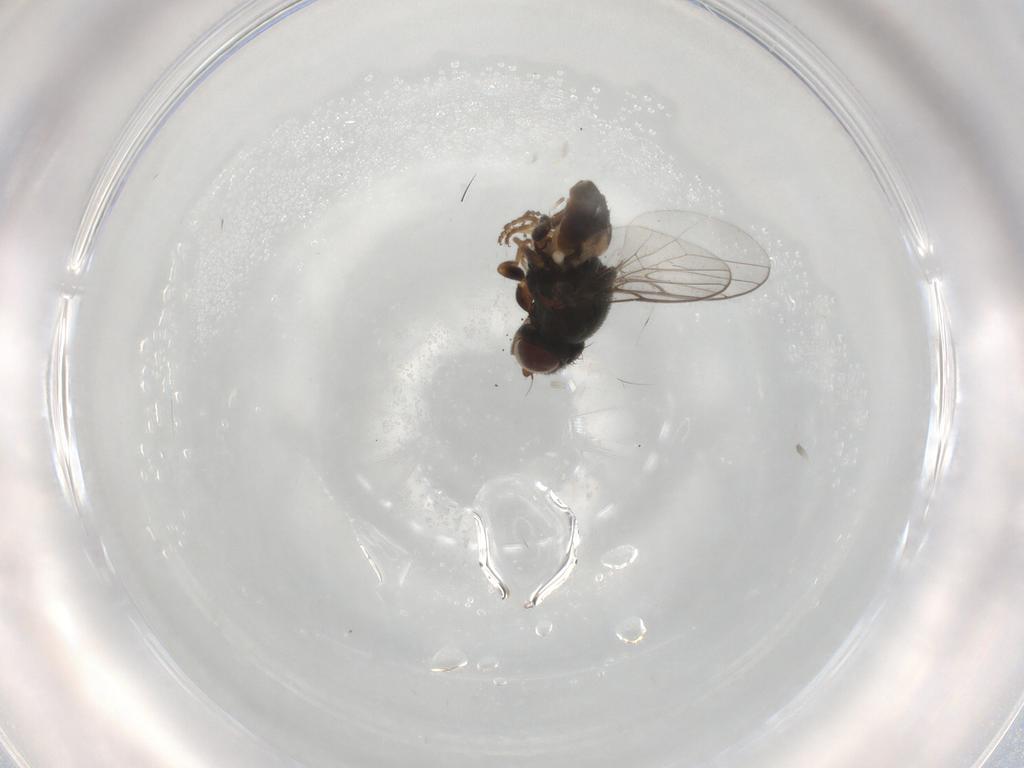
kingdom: Animalia
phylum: Arthropoda
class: Insecta
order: Diptera
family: Chloropidae
